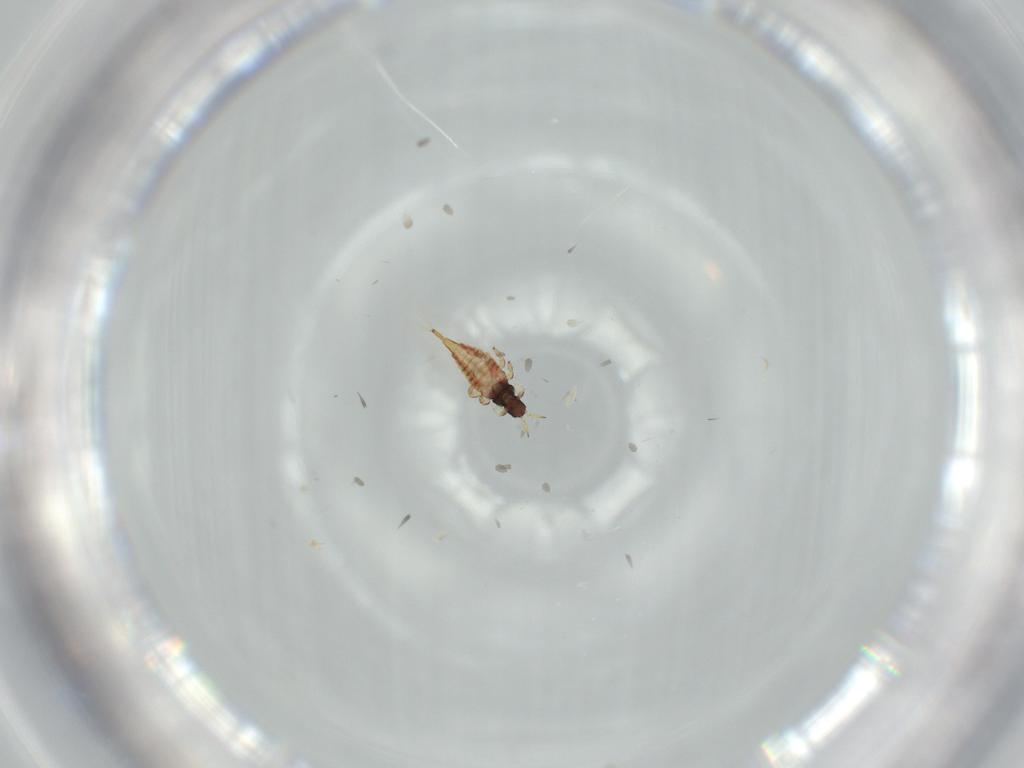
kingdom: Animalia
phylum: Arthropoda
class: Insecta
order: Thysanoptera
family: Phlaeothripidae
